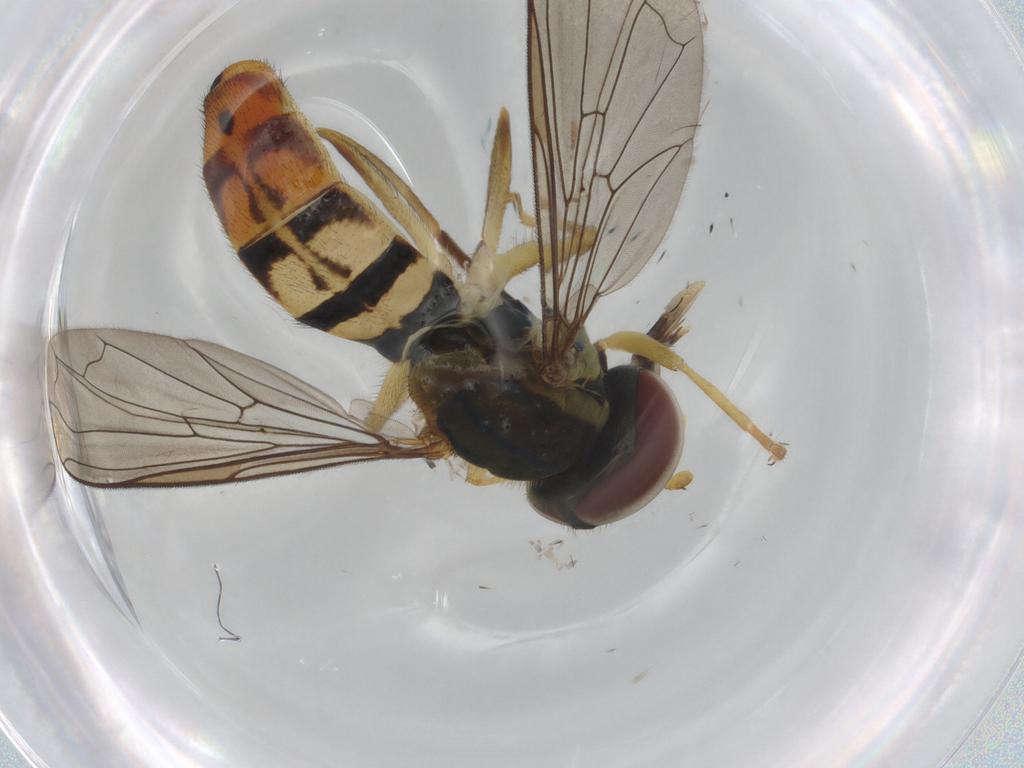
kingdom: Animalia
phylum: Arthropoda
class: Insecta
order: Diptera
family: Syrphidae
